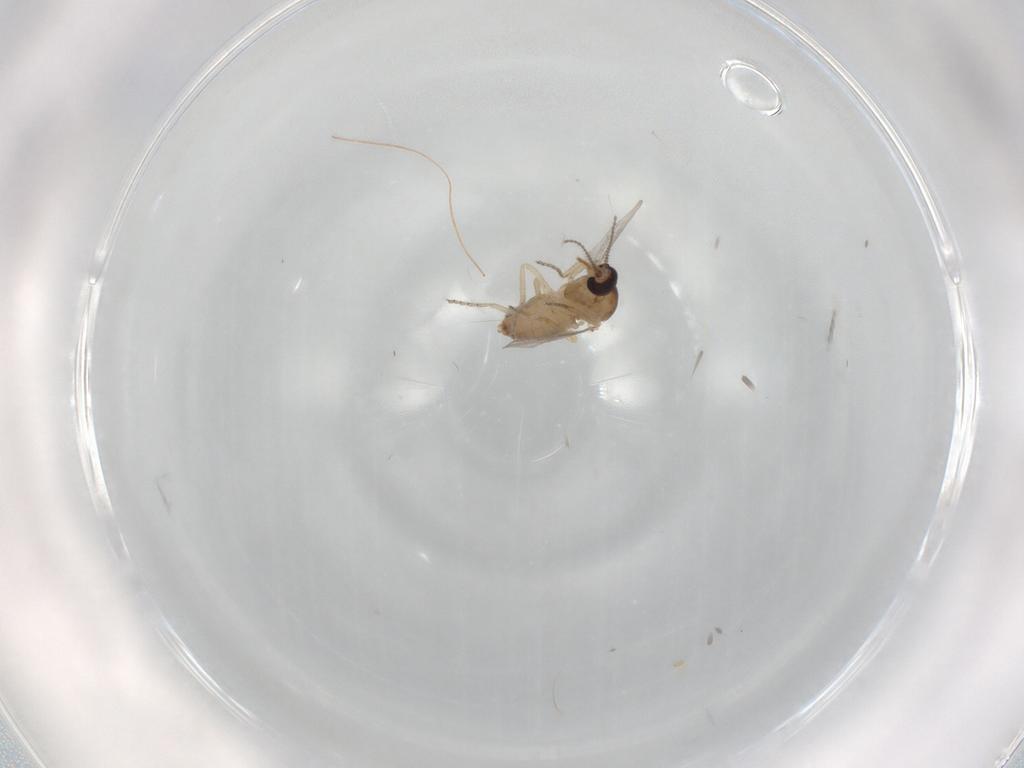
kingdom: Animalia
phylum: Arthropoda
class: Insecta
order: Diptera
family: Ceratopogonidae
